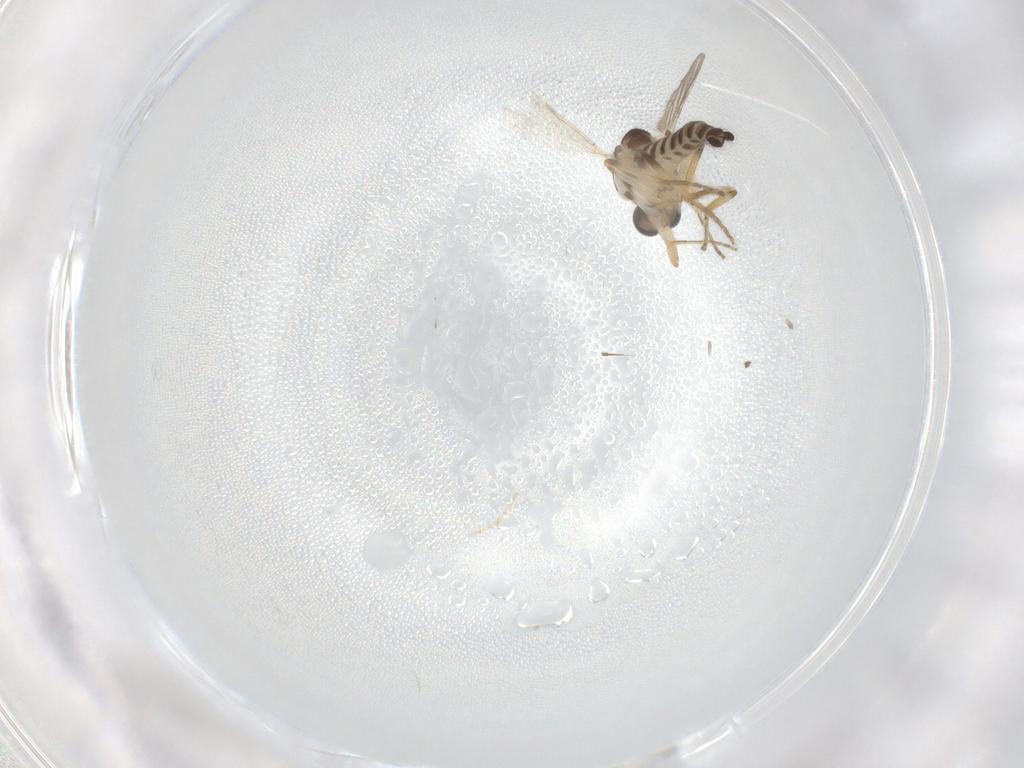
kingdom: Animalia
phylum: Arthropoda
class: Insecta
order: Diptera
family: Ceratopogonidae
